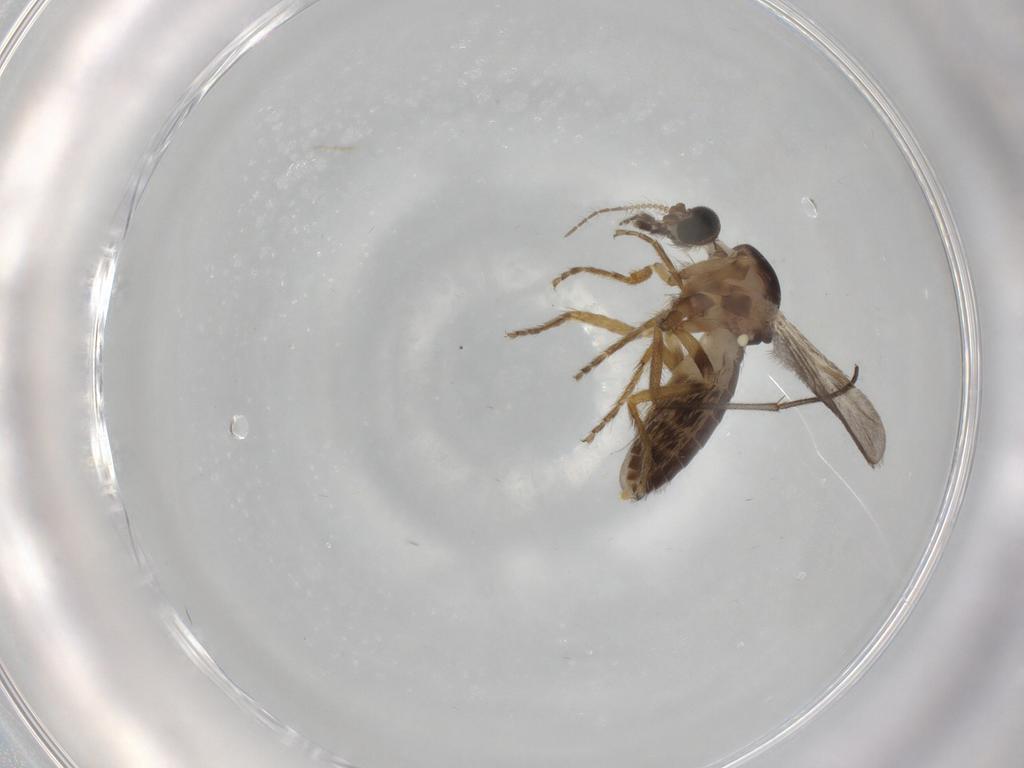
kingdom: Animalia
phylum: Arthropoda
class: Insecta
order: Diptera
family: Ceratopogonidae
